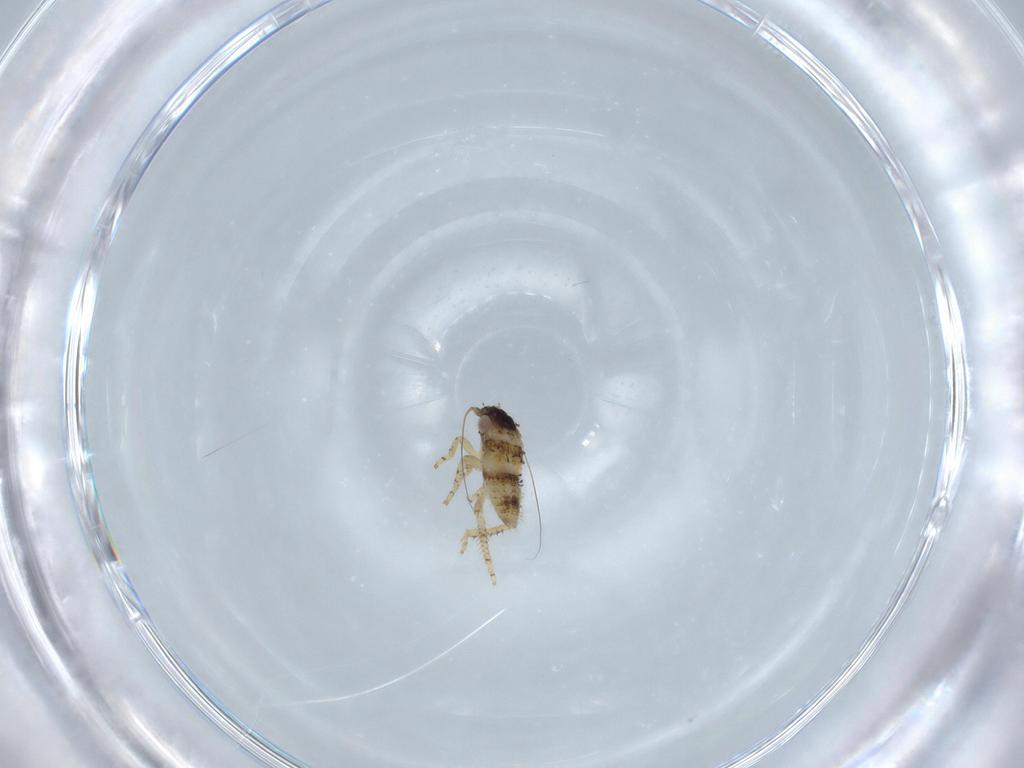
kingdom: Animalia
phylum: Arthropoda
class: Insecta
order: Hemiptera
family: Cicadellidae
